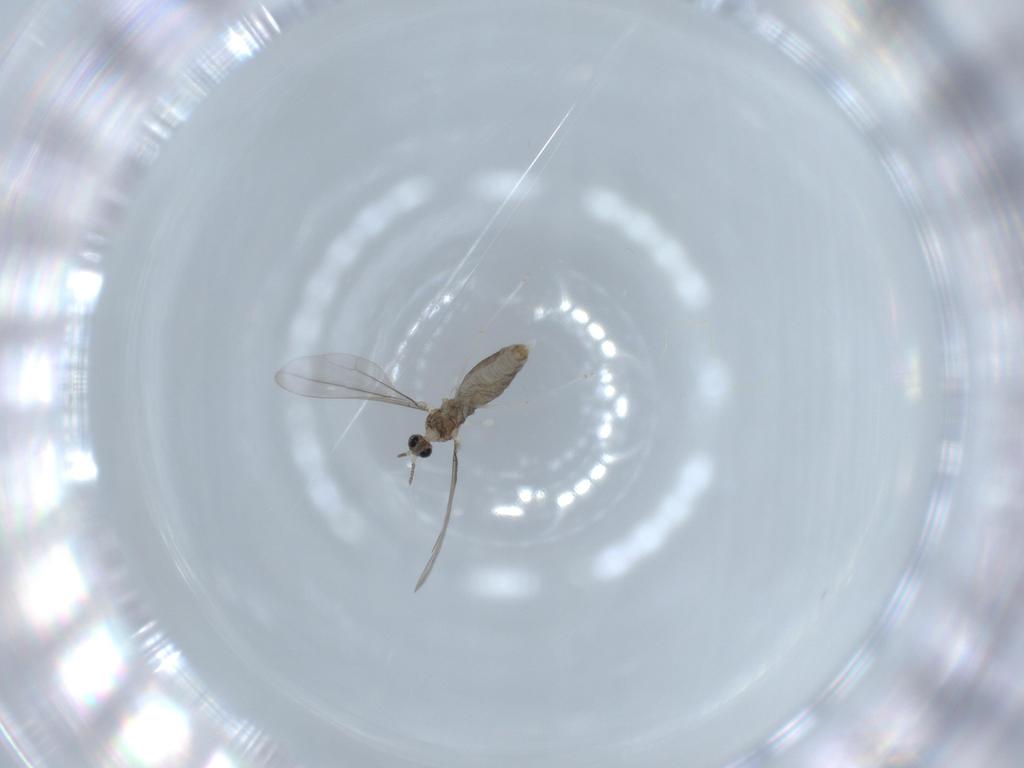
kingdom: Animalia
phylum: Arthropoda
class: Insecta
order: Diptera
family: Cecidomyiidae
